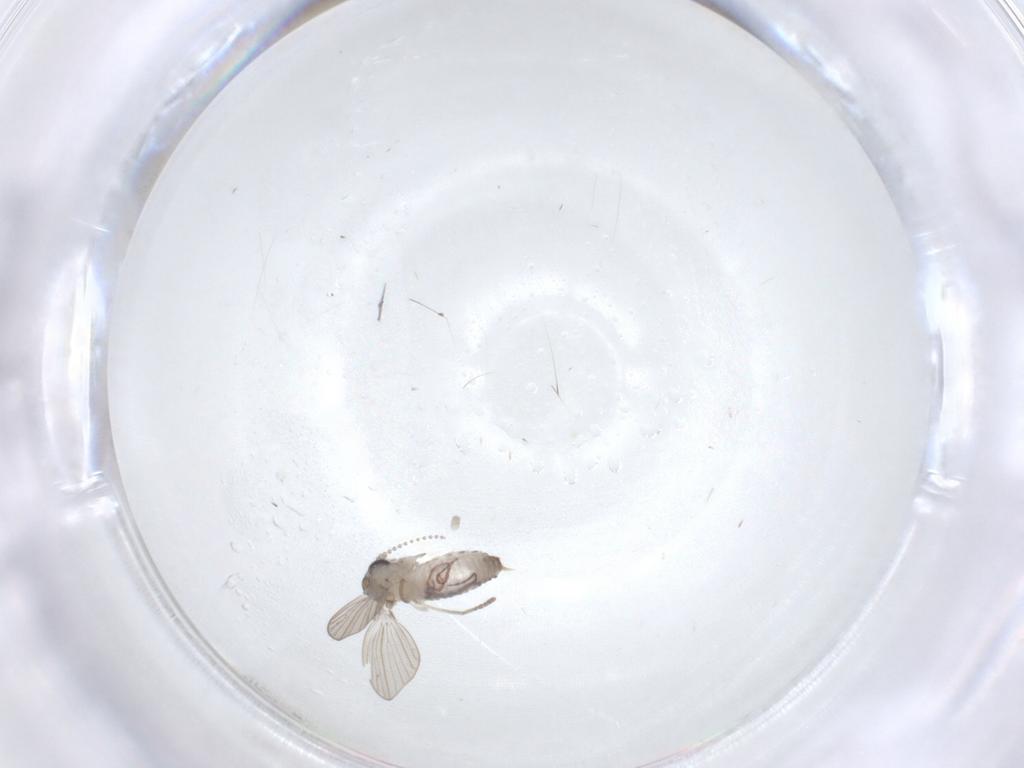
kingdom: Animalia
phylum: Arthropoda
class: Insecta
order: Diptera
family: Psychodidae
